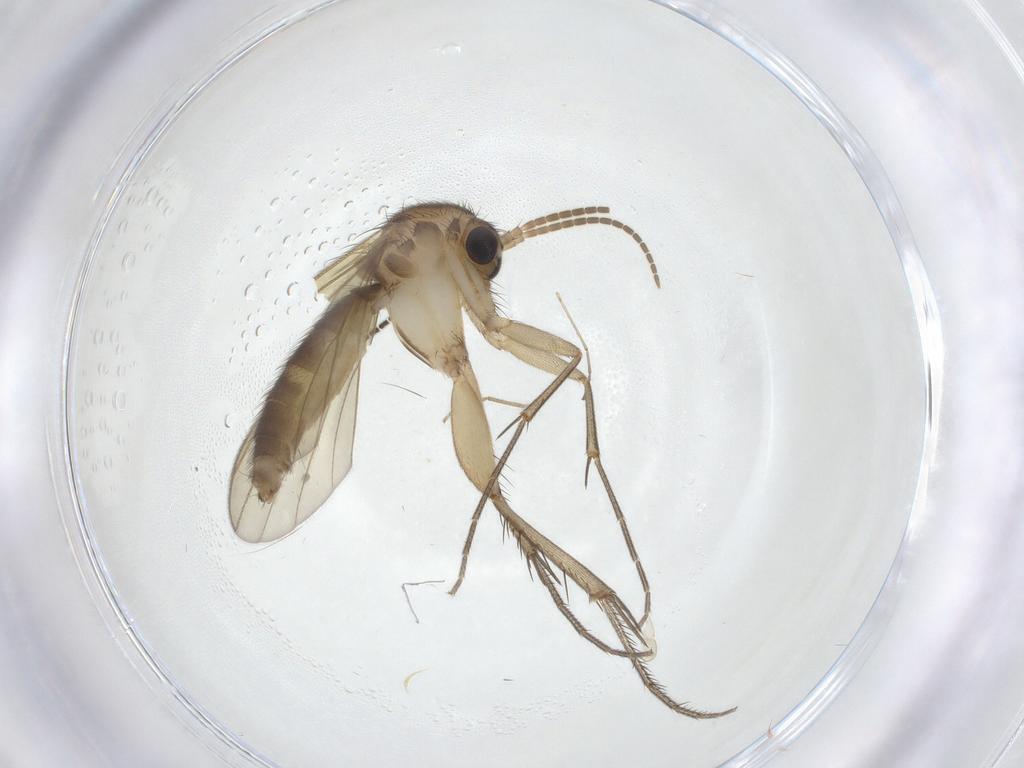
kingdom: Animalia
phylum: Arthropoda
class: Insecta
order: Diptera
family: Mycetophilidae
